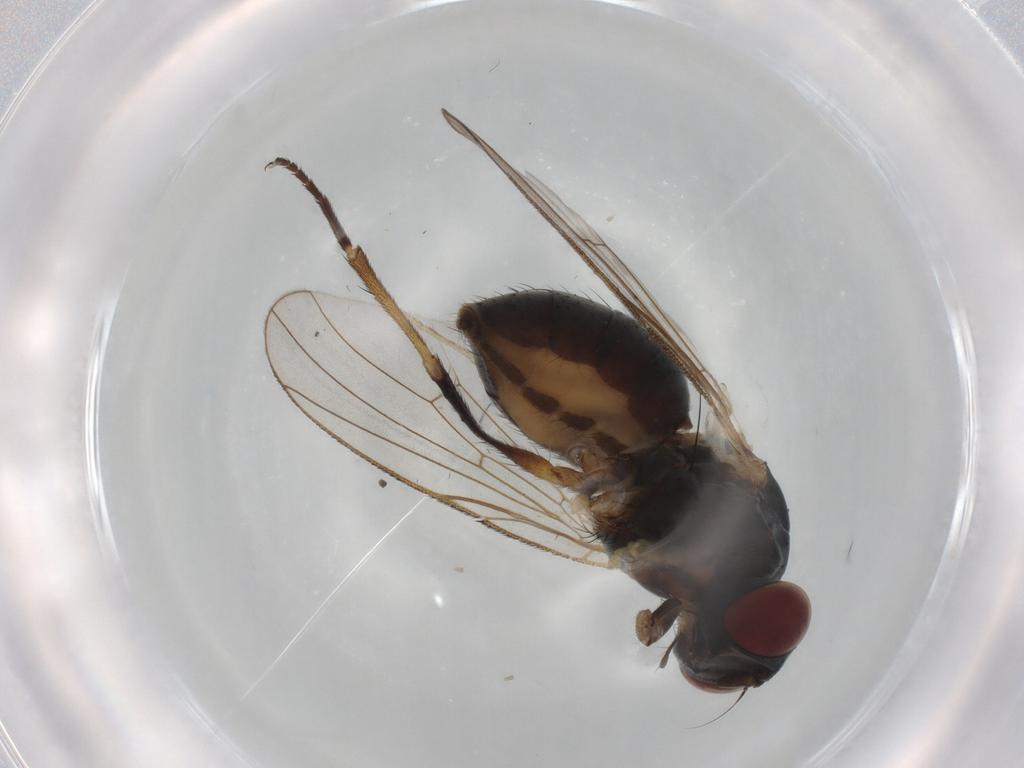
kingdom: Animalia
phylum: Arthropoda
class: Insecta
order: Diptera
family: Muscidae
